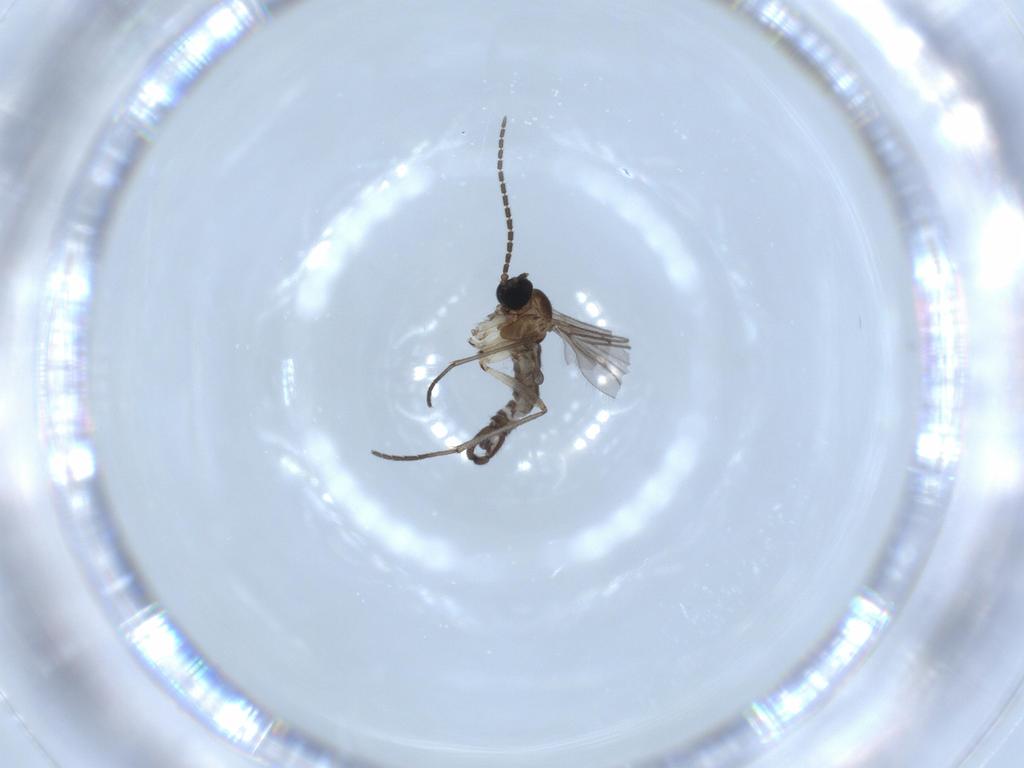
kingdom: Animalia
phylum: Arthropoda
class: Insecta
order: Diptera
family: Sciaridae
